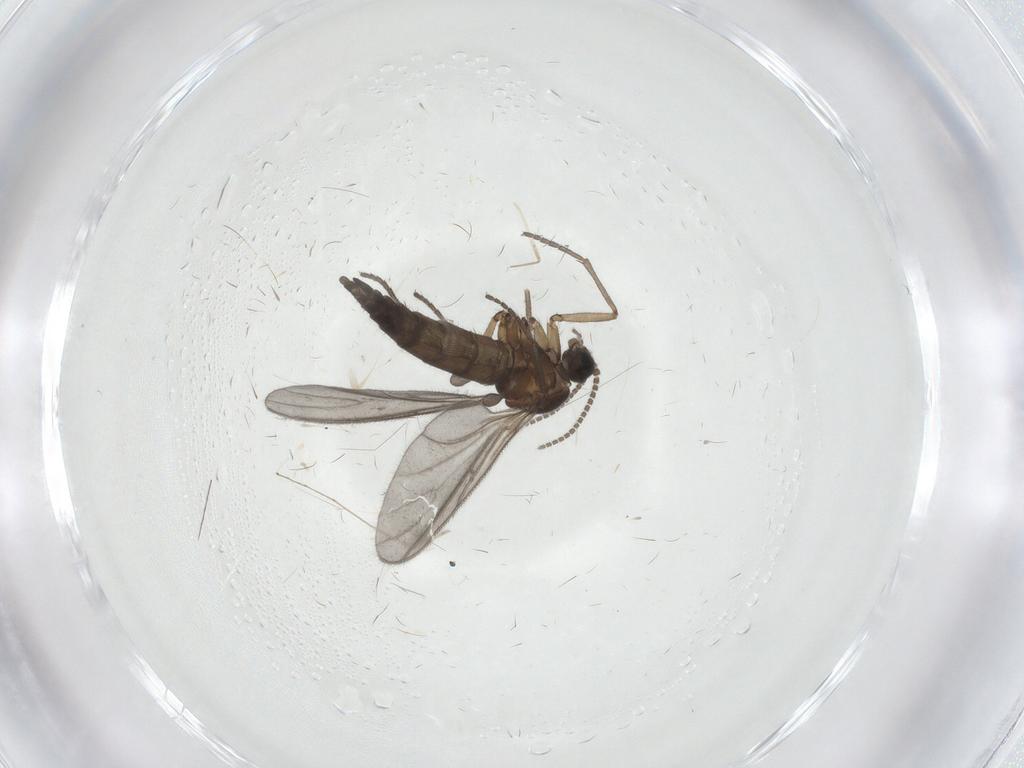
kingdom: Animalia
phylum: Arthropoda
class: Insecta
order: Diptera
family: Sciaridae
